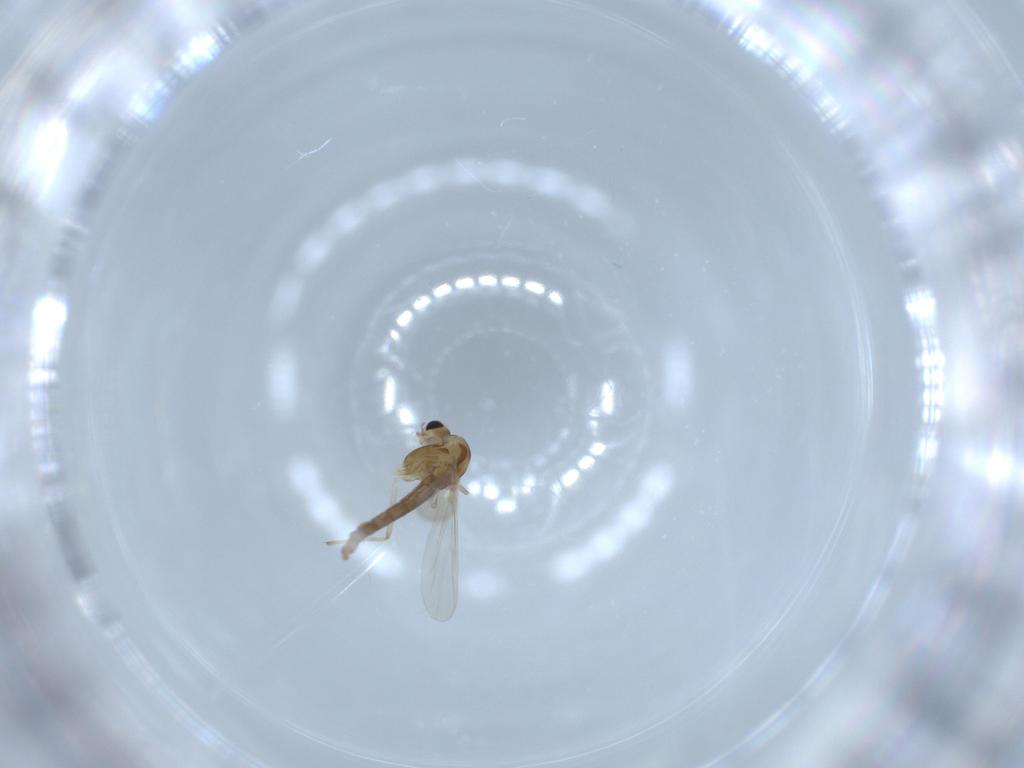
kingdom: Animalia
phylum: Arthropoda
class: Insecta
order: Diptera
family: Chironomidae
